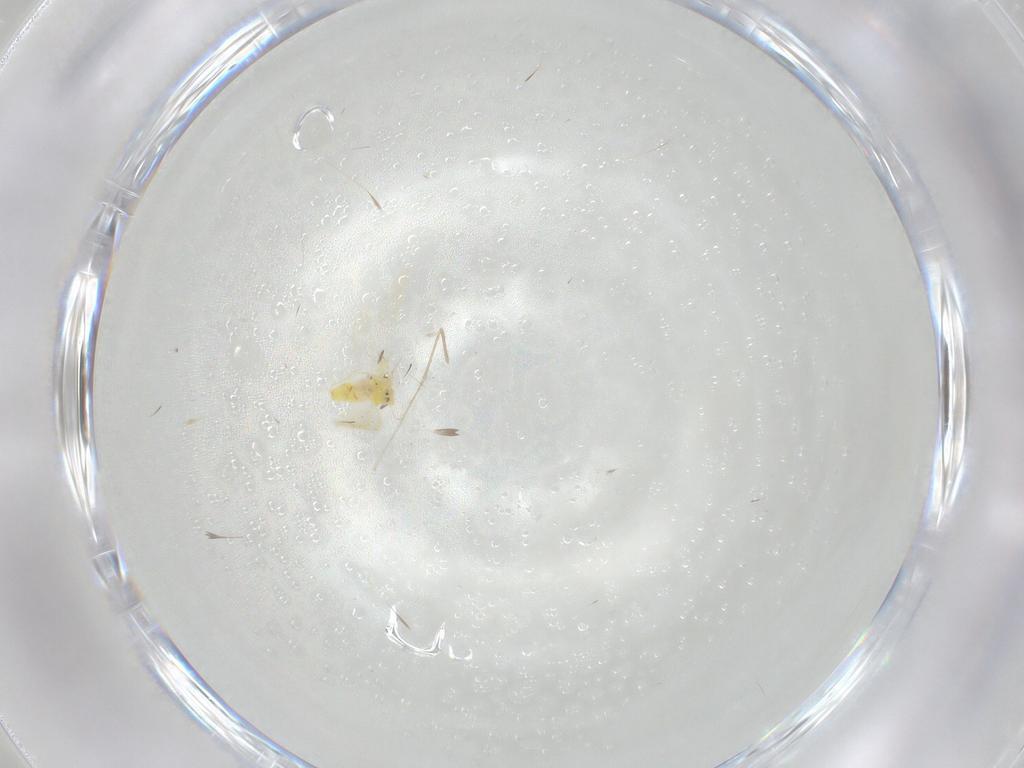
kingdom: Animalia
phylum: Arthropoda
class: Insecta
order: Hemiptera
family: Aleyrodidae
